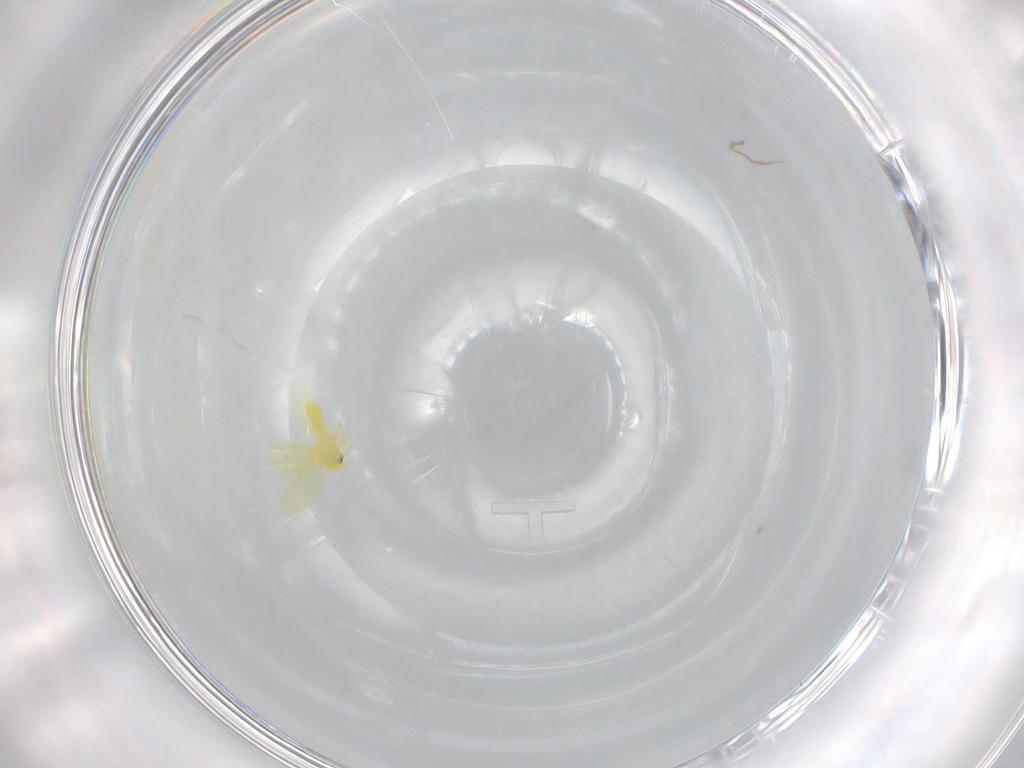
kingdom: Animalia
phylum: Arthropoda
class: Insecta
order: Hemiptera
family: Aleyrodidae
